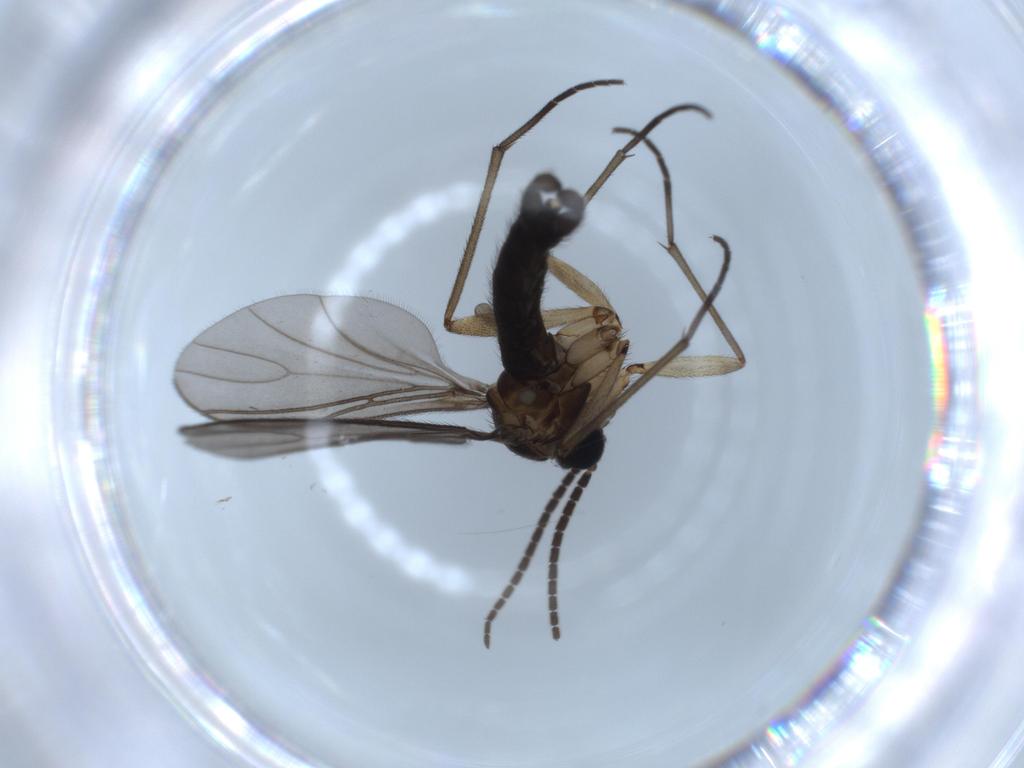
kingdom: Animalia
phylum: Arthropoda
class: Insecta
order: Diptera
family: Sciaridae
